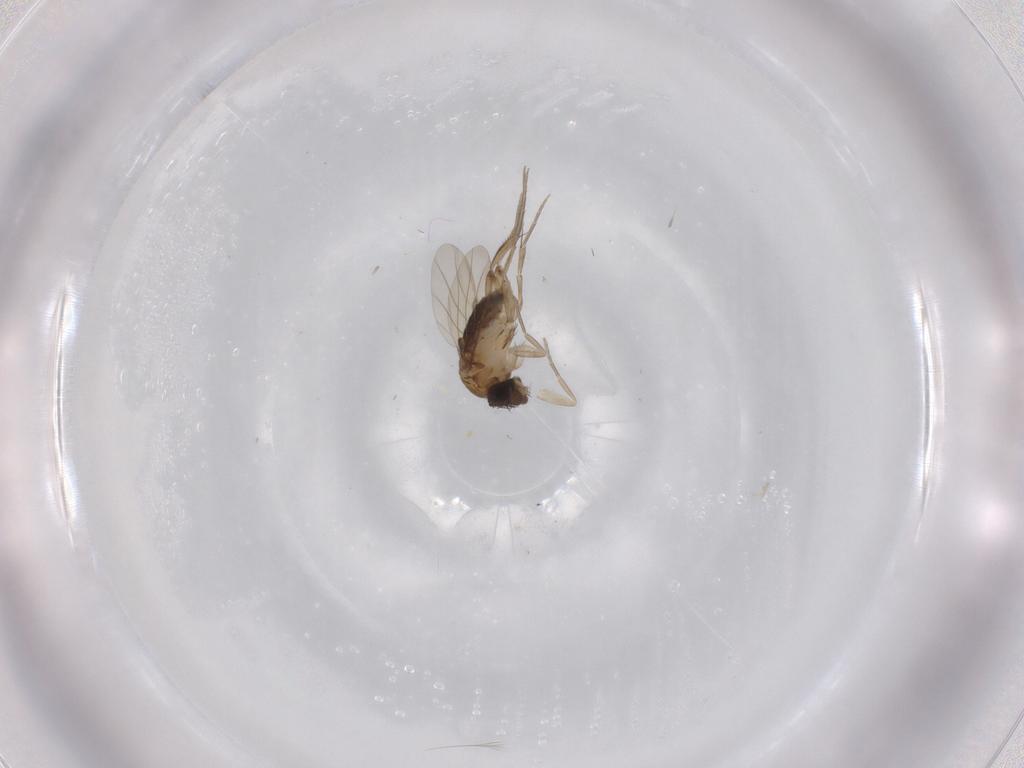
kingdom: Animalia
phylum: Arthropoda
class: Insecta
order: Diptera
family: Phoridae
